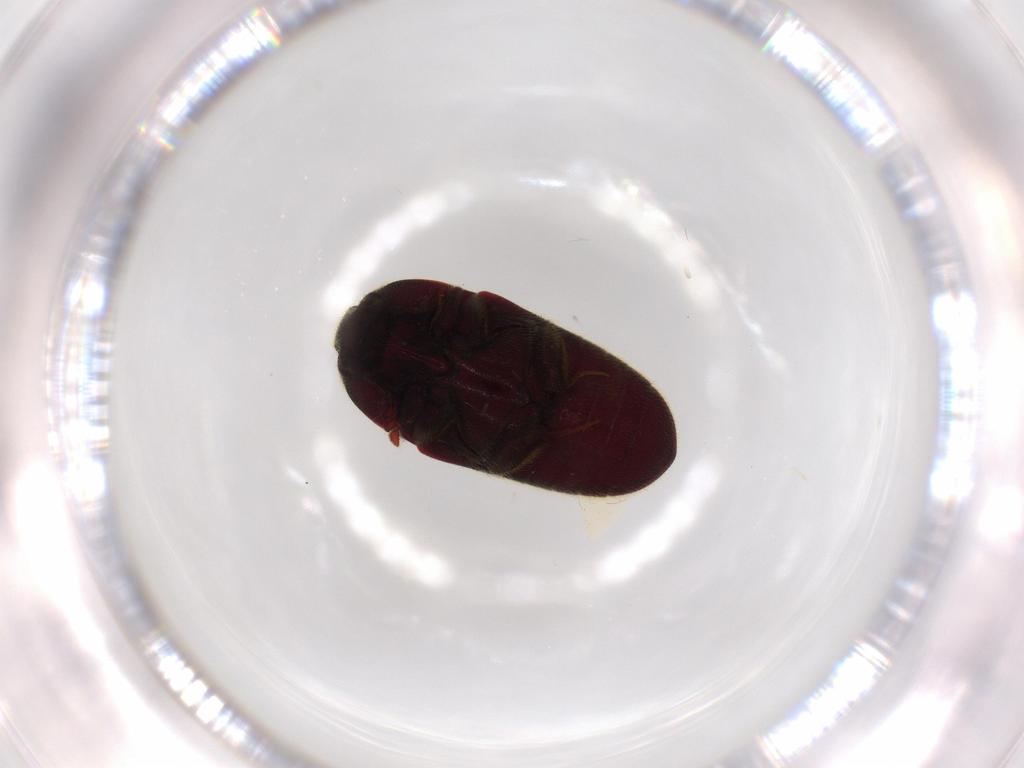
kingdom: Animalia
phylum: Arthropoda
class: Insecta
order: Coleoptera
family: Throscidae
